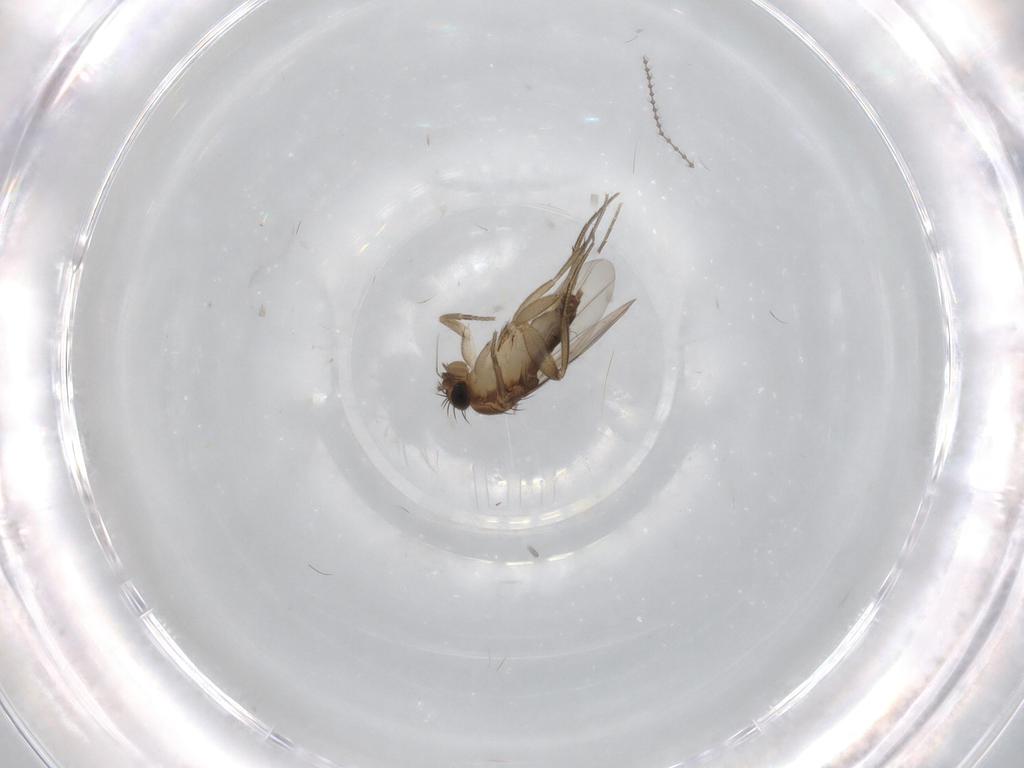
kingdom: Animalia
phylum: Arthropoda
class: Insecta
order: Diptera
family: Phoridae
